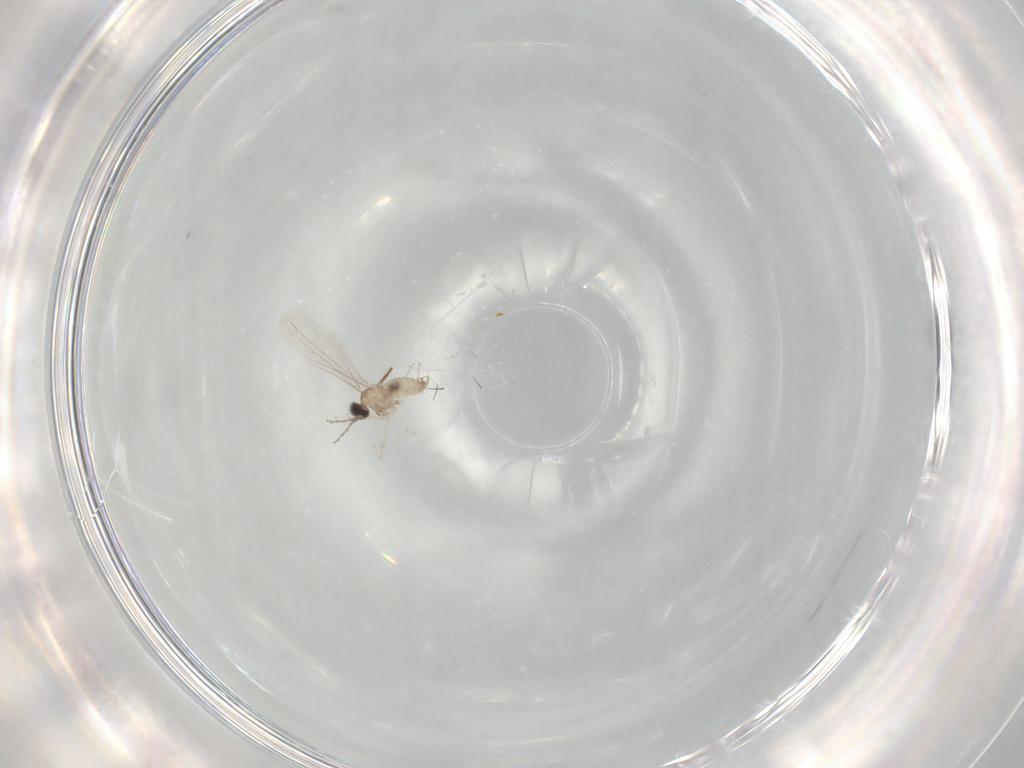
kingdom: Animalia
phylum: Arthropoda
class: Insecta
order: Diptera
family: Cecidomyiidae
